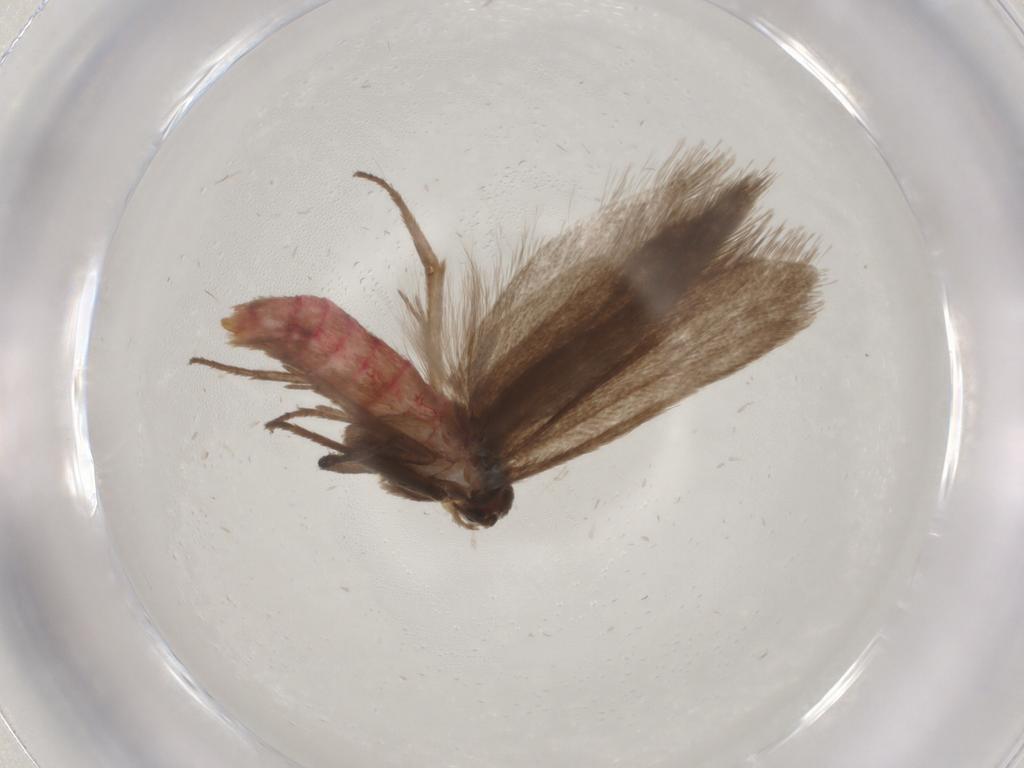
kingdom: Animalia
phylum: Arthropoda
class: Insecta
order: Lepidoptera
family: Limacodidae
